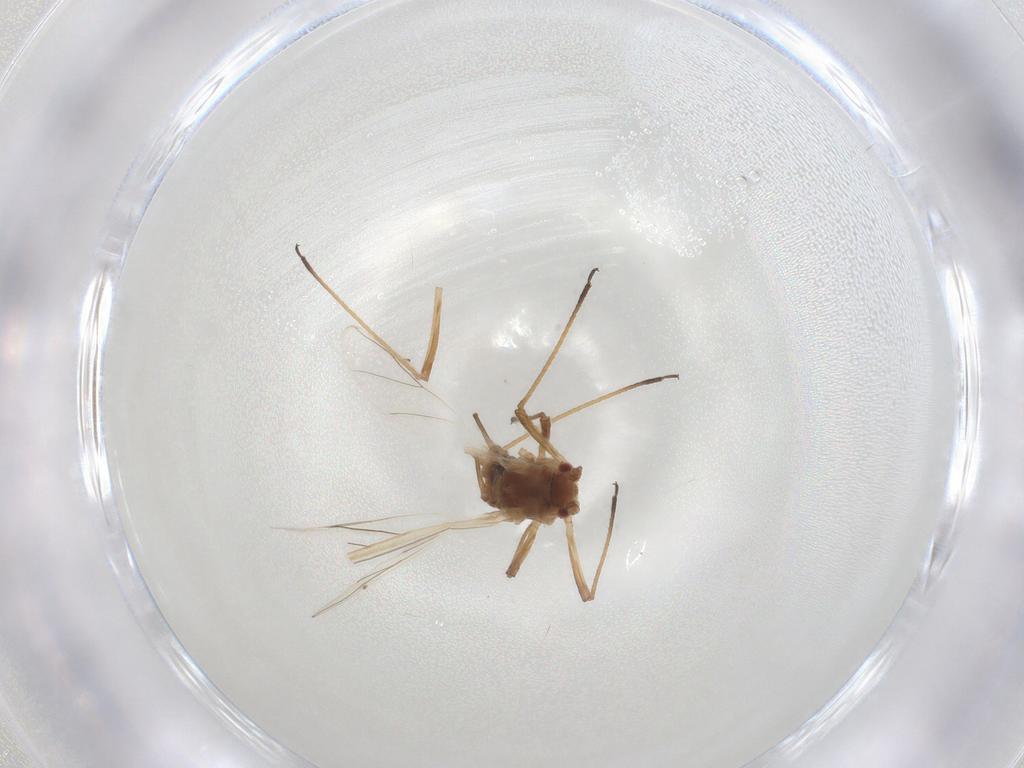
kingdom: Animalia
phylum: Arthropoda
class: Insecta
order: Hemiptera
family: Aphididae
